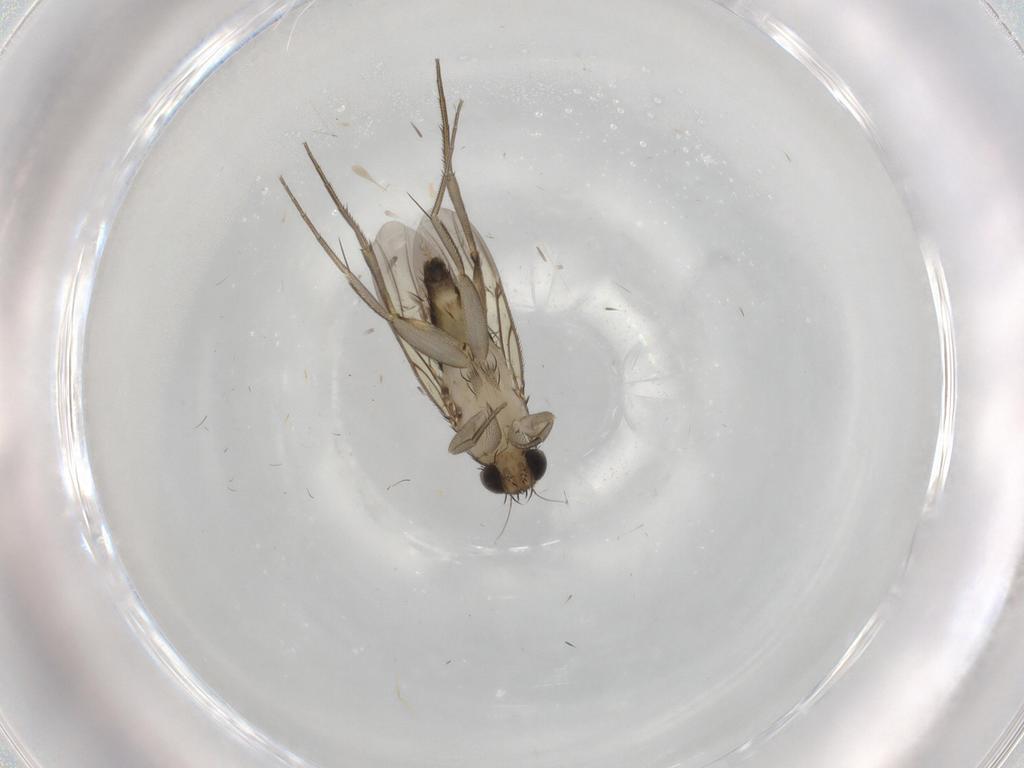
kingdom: Animalia
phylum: Arthropoda
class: Insecta
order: Diptera
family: Phoridae
